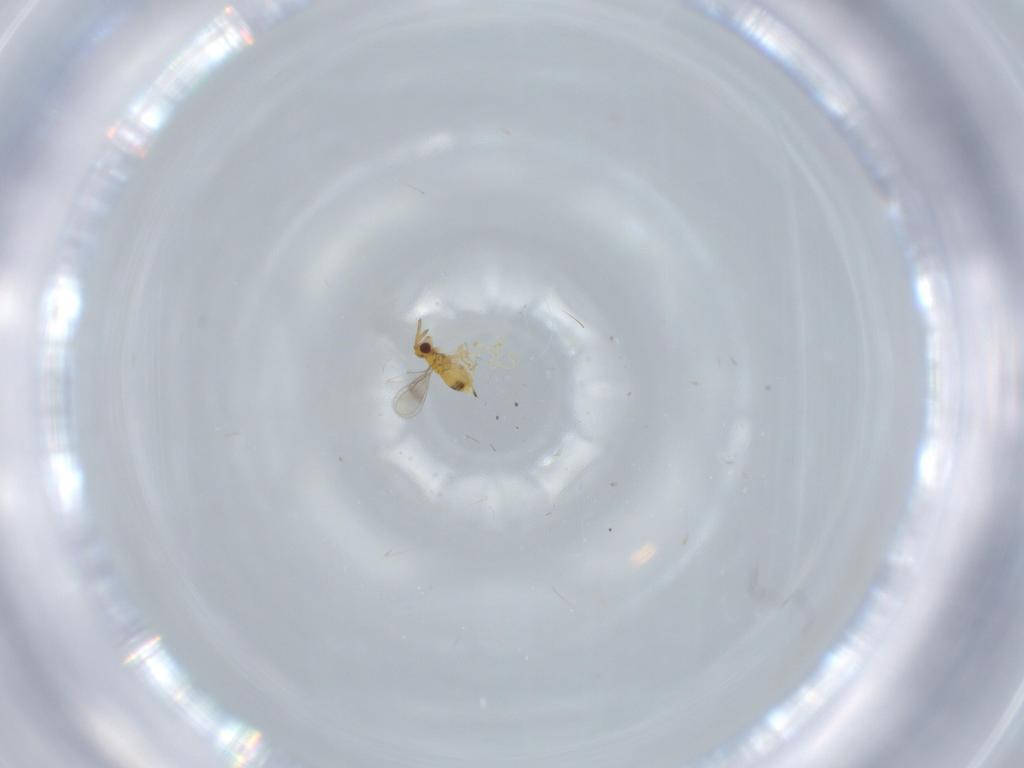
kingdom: Animalia
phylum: Arthropoda
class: Insecta
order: Hymenoptera
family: Aphelinidae
